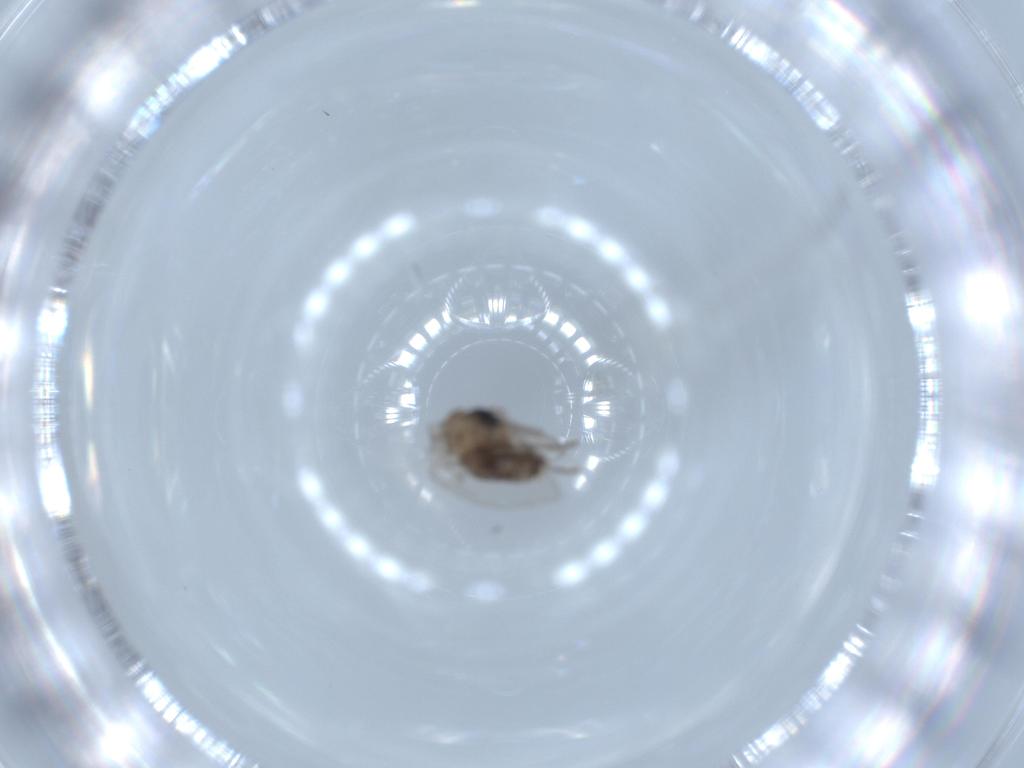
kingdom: Animalia
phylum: Arthropoda
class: Insecta
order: Diptera
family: Psychodidae
